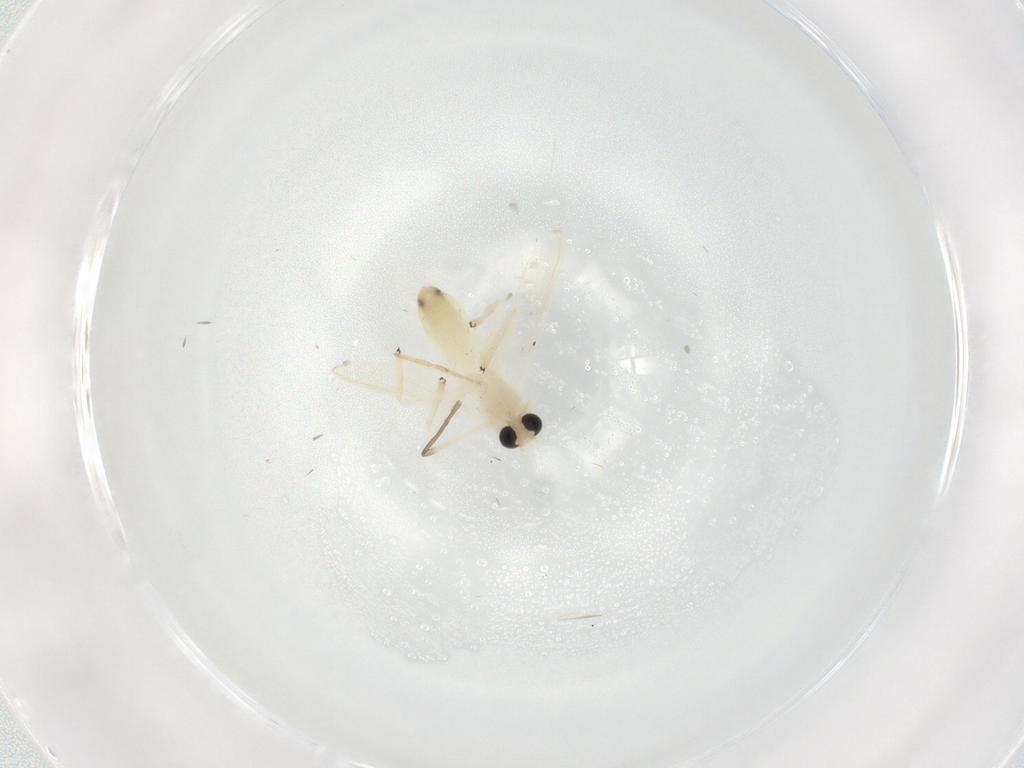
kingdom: Animalia
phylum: Arthropoda
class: Insecta
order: Diptera
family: Chironomidae
